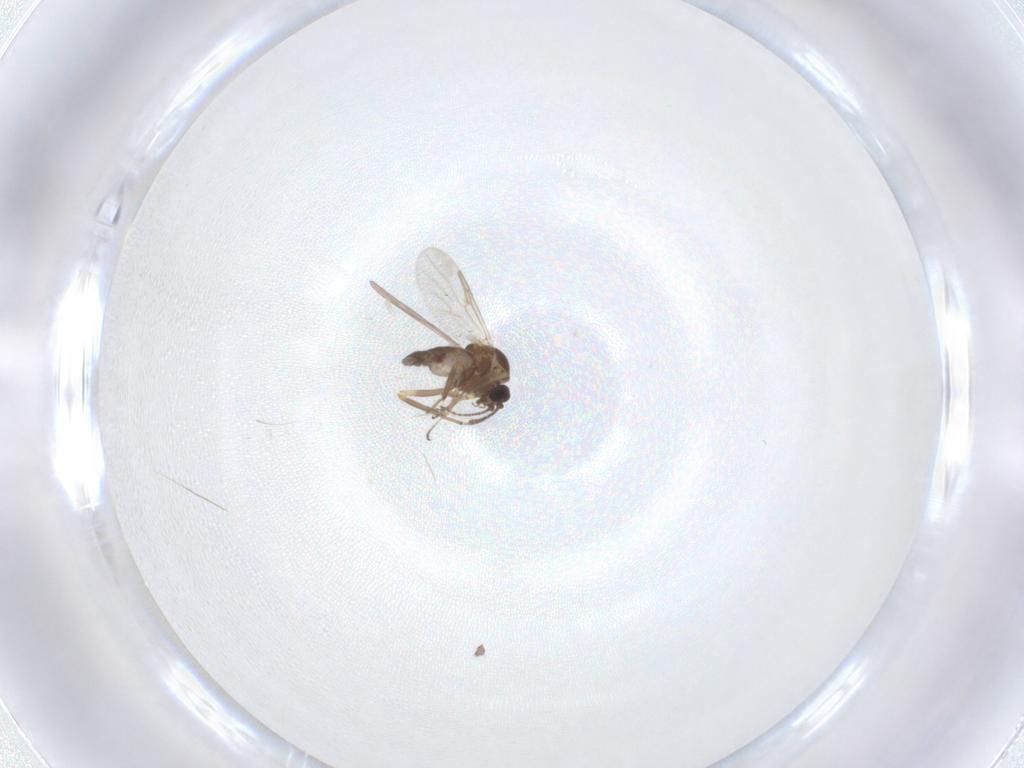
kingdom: Animalia
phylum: Arthropoda
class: Insecta
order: Diptera
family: Ceratopogonidae
